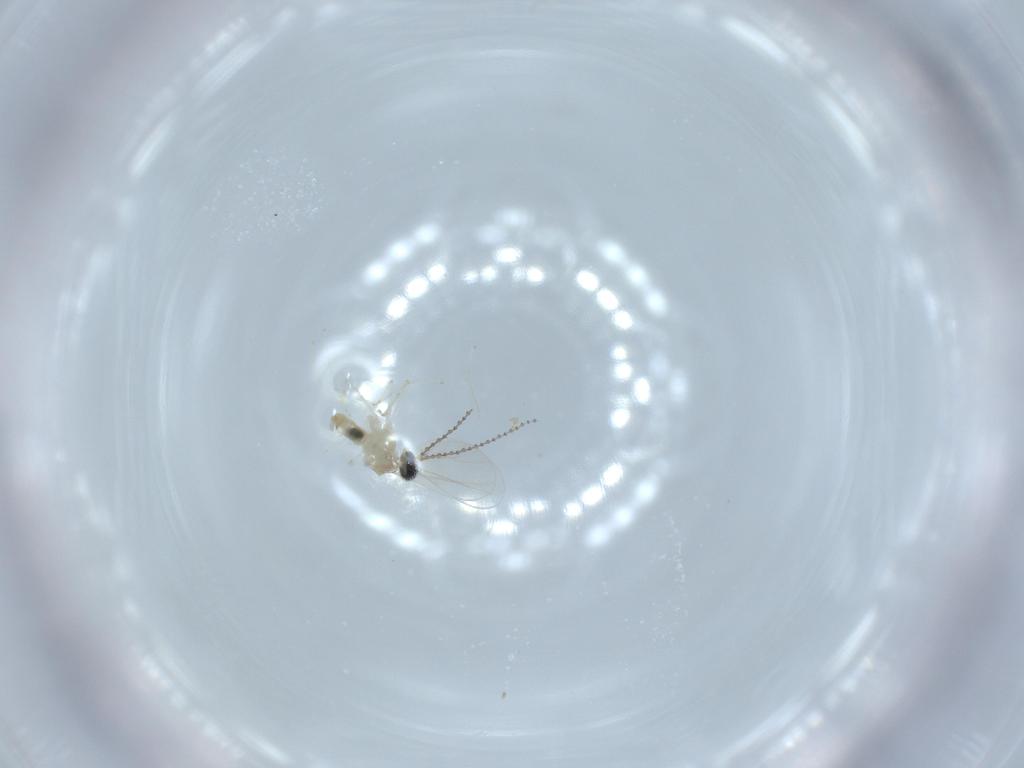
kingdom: Animalia
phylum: Arthropoda
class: Insecta
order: Diptera
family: Cecidomyiidae
